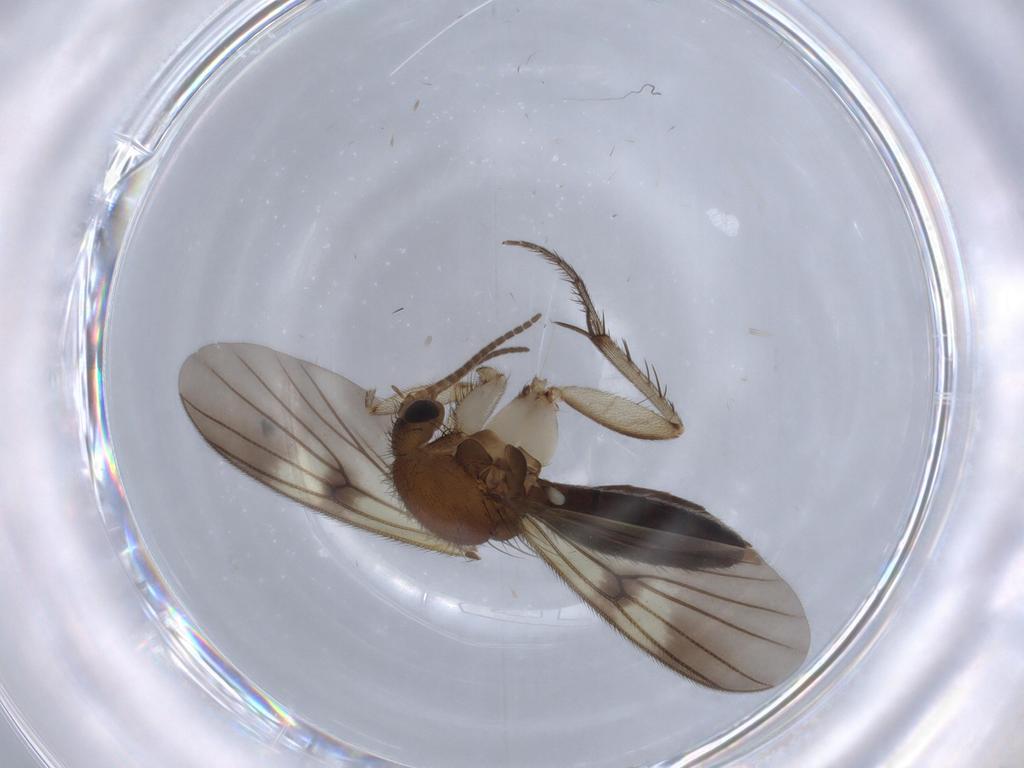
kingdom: Animalia
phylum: Arthropoda
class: Insecta
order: Diptera
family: Mycetophilidae
